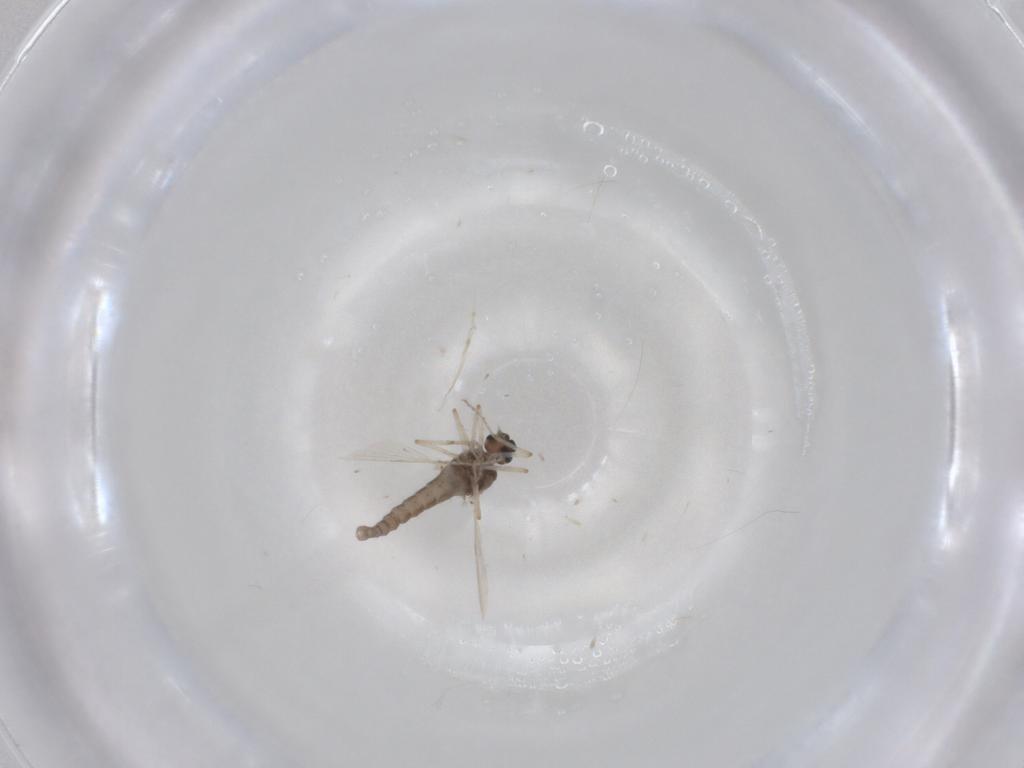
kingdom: Animalia
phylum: Arthropoda
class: Insecta
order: Diptera
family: Ceratopogonidae
